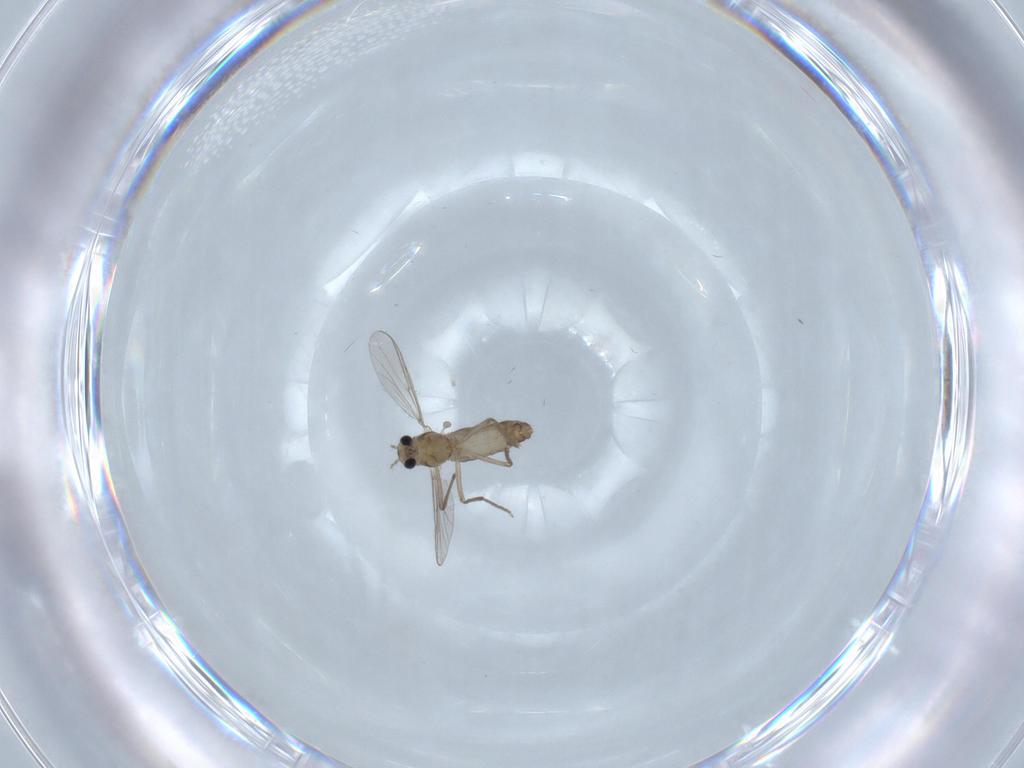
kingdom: Animalia
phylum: Arthropoda
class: Insecta
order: Diptera
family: Chironomidae
